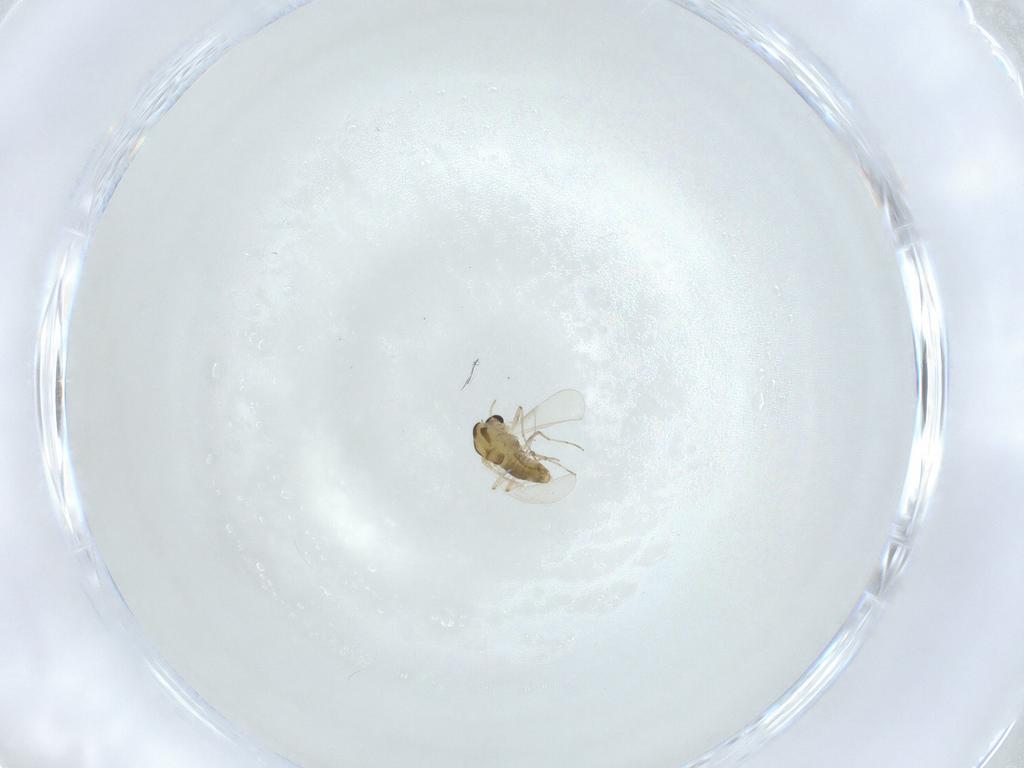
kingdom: Animalia
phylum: Arthropoda
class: Insecta
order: Diptera
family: Chironomidae
